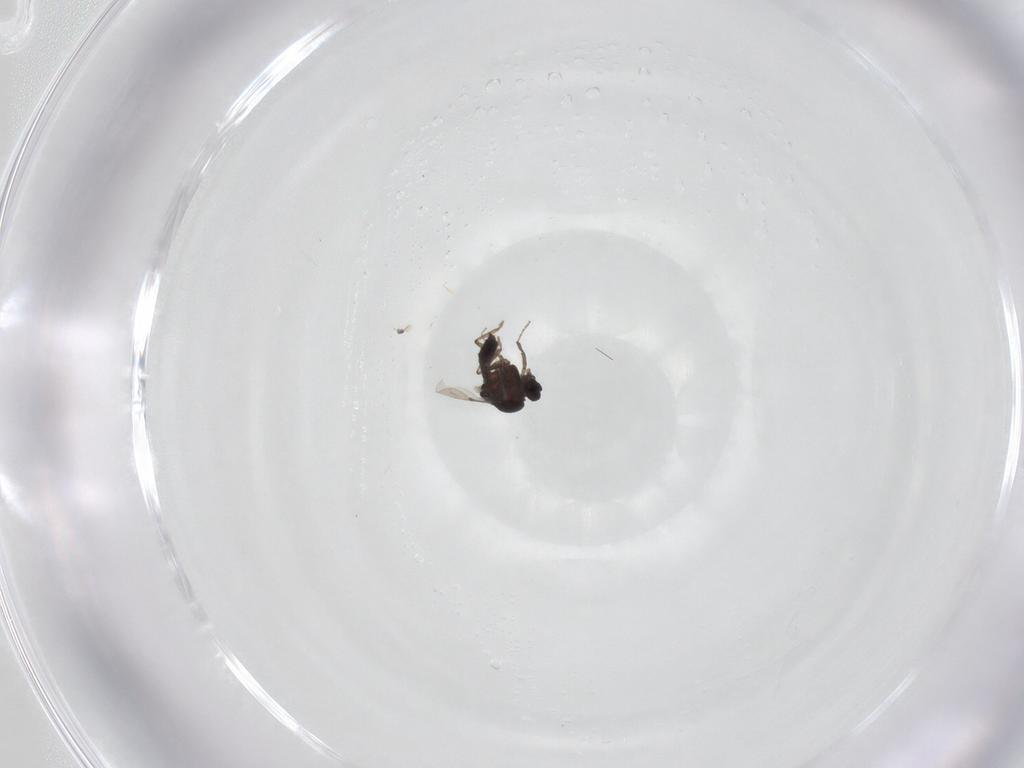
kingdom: Animalia
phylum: Arthropoda
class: Insecta
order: Diptera
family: Ceratopogonidae
